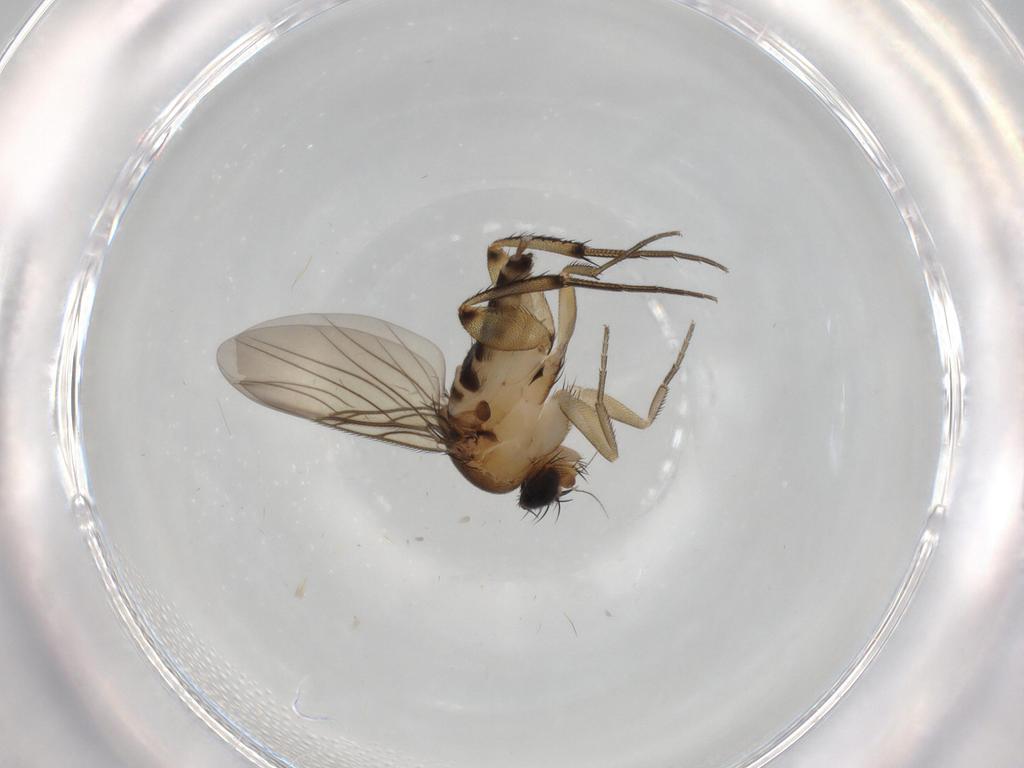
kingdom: Animalia
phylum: Arthropoda
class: Insecta
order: Diptera
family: Phoridae
